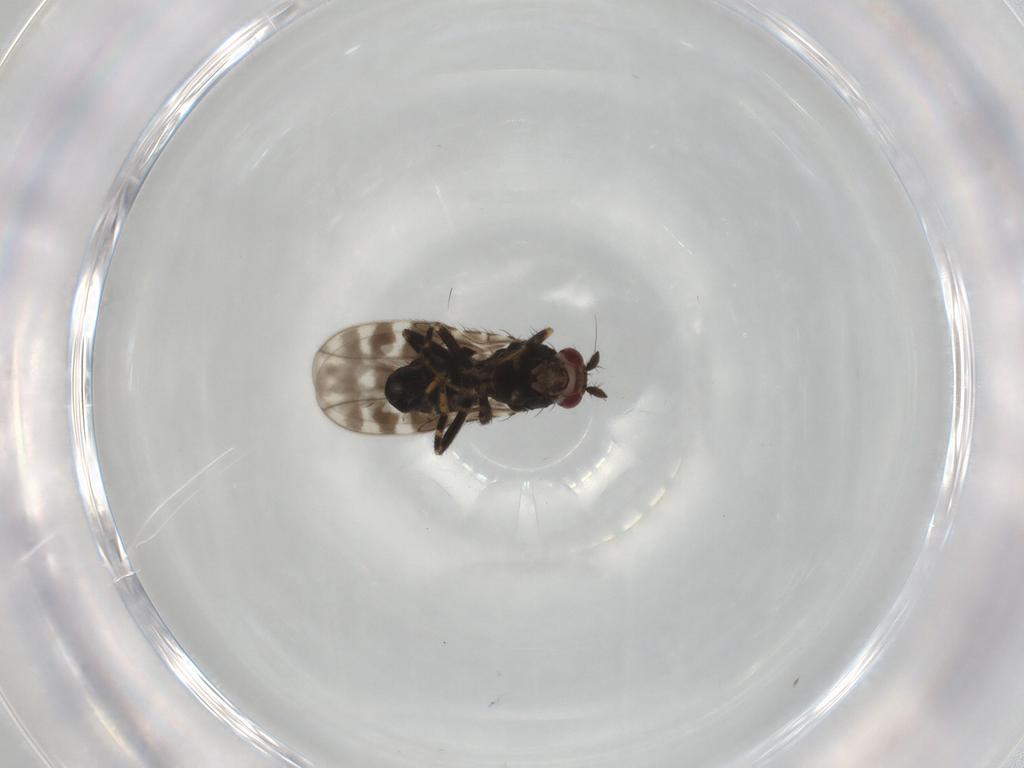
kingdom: Animalia
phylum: Arthropoda
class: Insecta
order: Diptera
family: Sphaeroceridae
